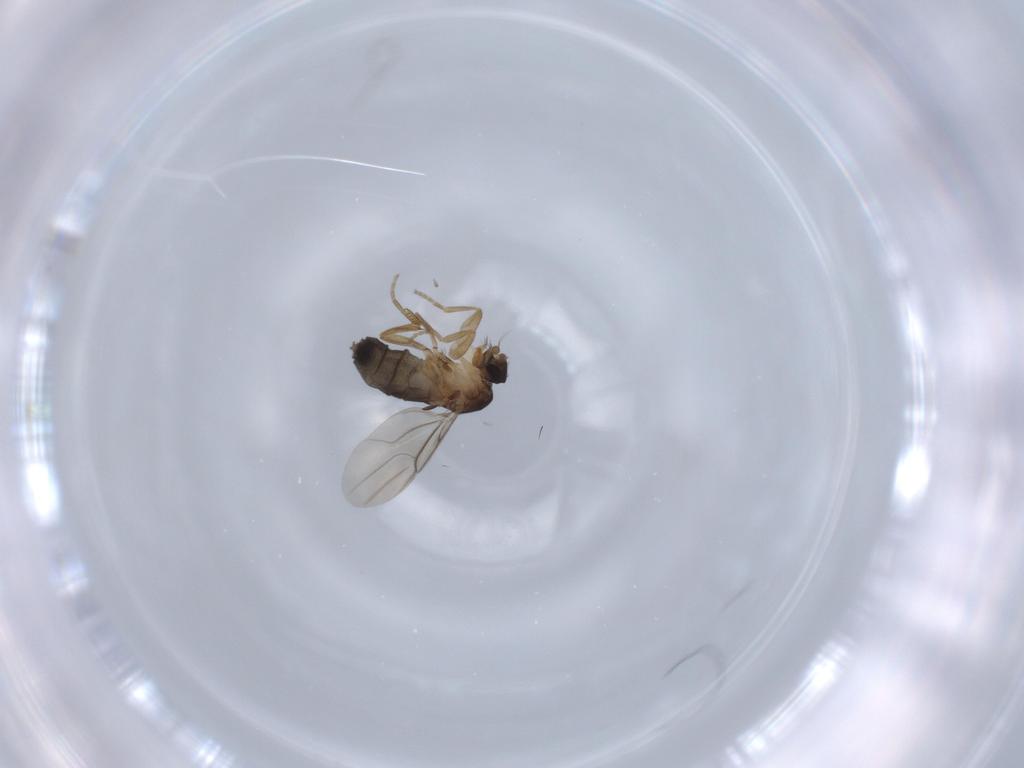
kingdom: Animalia
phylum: Arthropoda
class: Insecta
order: Diptera
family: Phoridae
